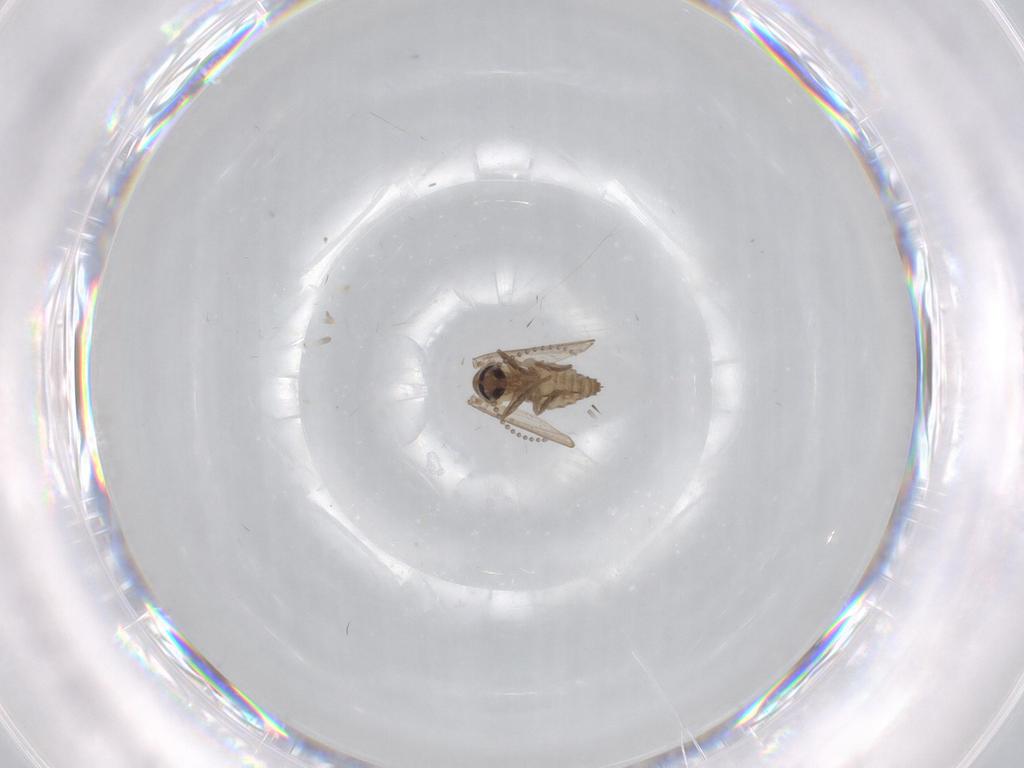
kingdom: Animalia
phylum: Arthropoda
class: Insecta
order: Diptera
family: Psychodidae
